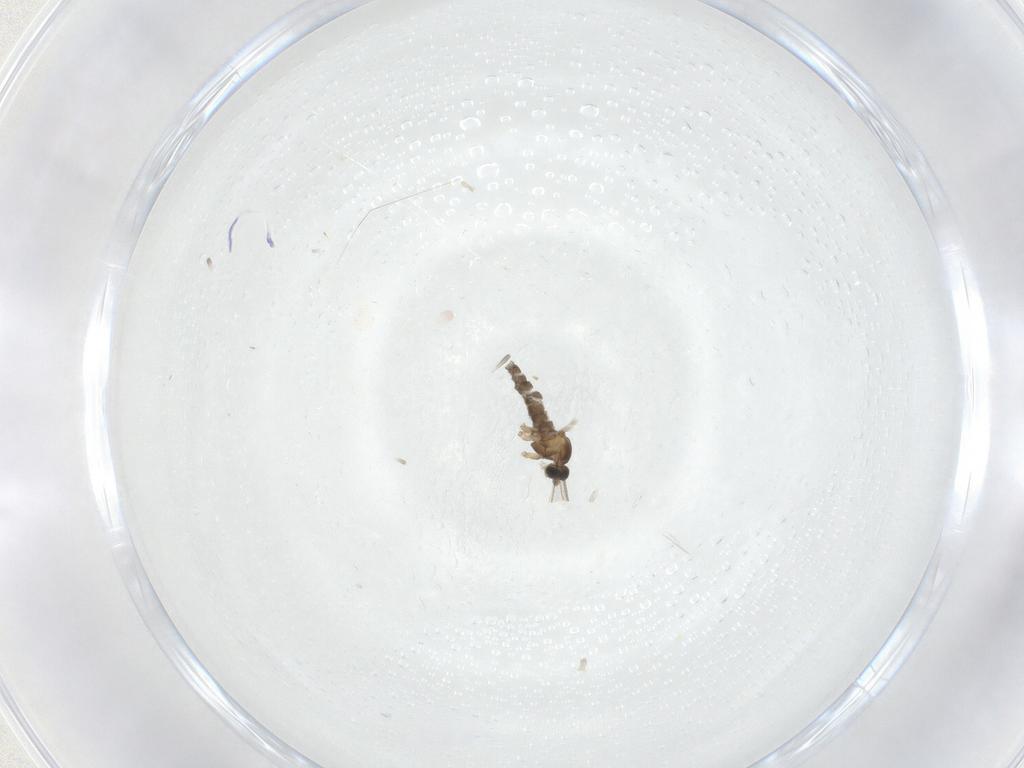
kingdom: Animalia
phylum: Arthropoda
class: Insecta
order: Diptera
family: Cecidomyiidae
